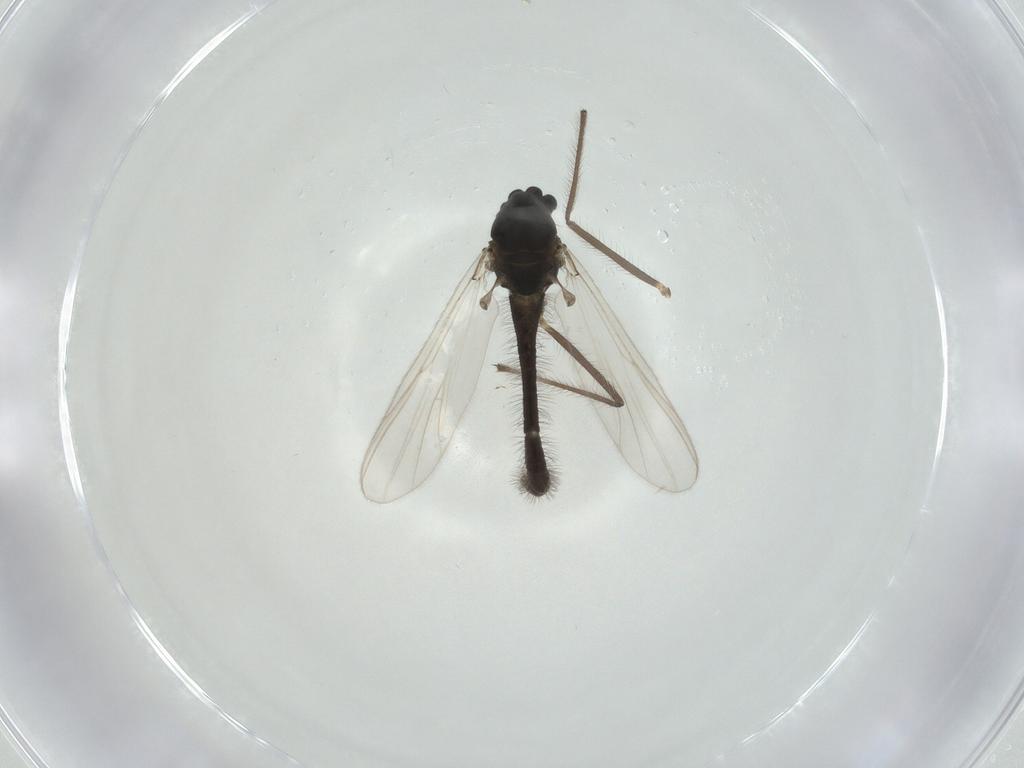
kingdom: Animalia
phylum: Arthropoda
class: Insecta
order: Diptera
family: Chironomidae
